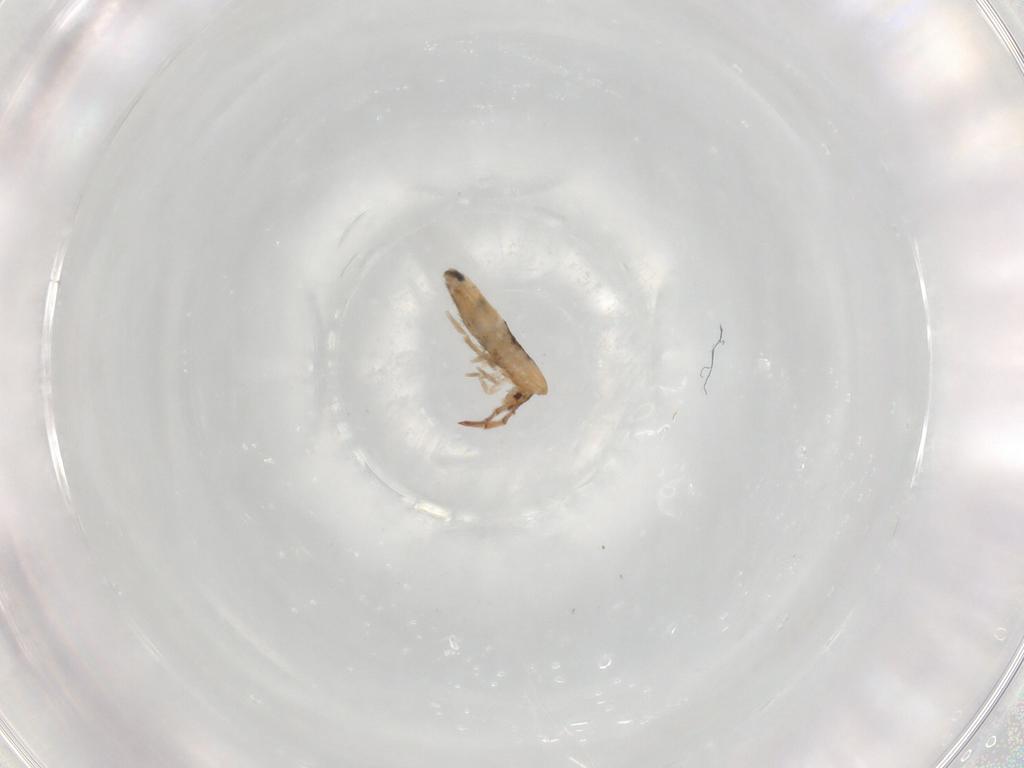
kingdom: Animalia
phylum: Arthropoda
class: Collembola
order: Entomobryomorpha
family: Entomobryidae
